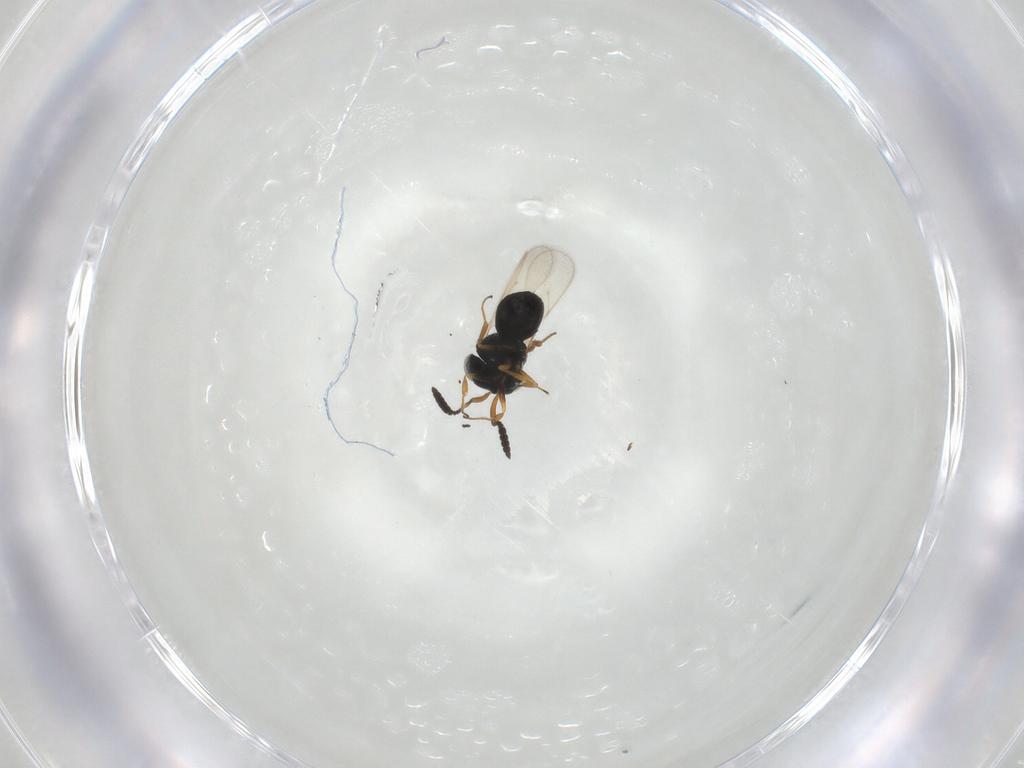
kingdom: Animalia
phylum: Arthropoda
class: Insecta
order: Hymenoptera
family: Scelionidae
